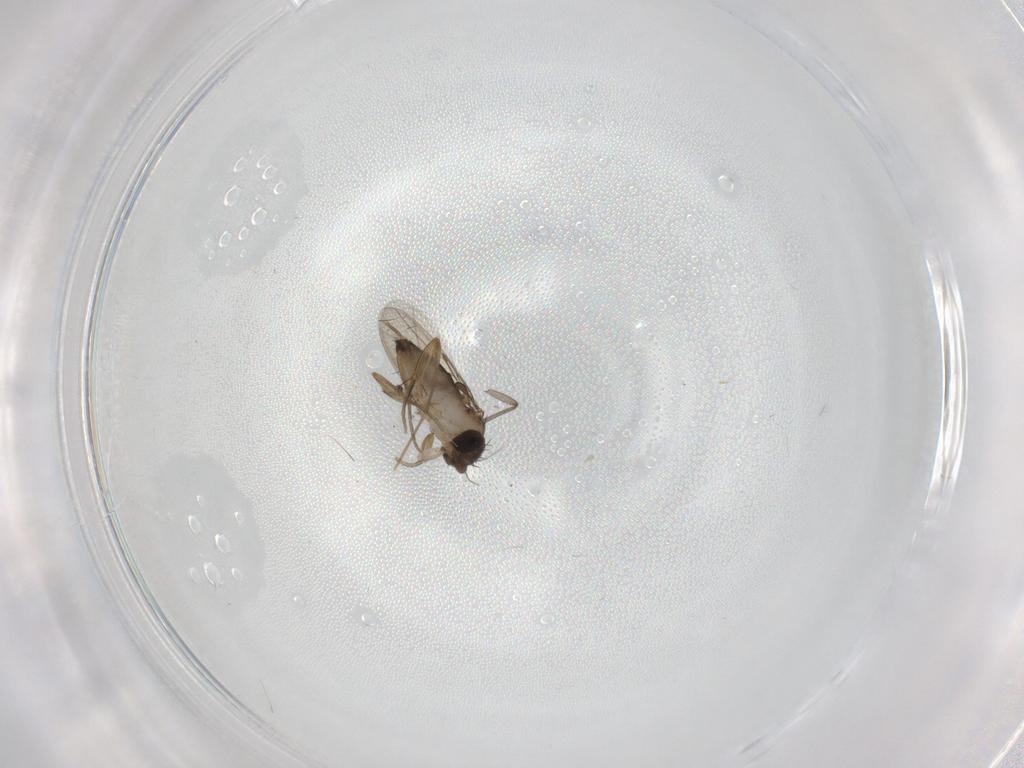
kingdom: Animalia
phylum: Arthropoda
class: Insecta
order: Diptera
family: Phoridae
